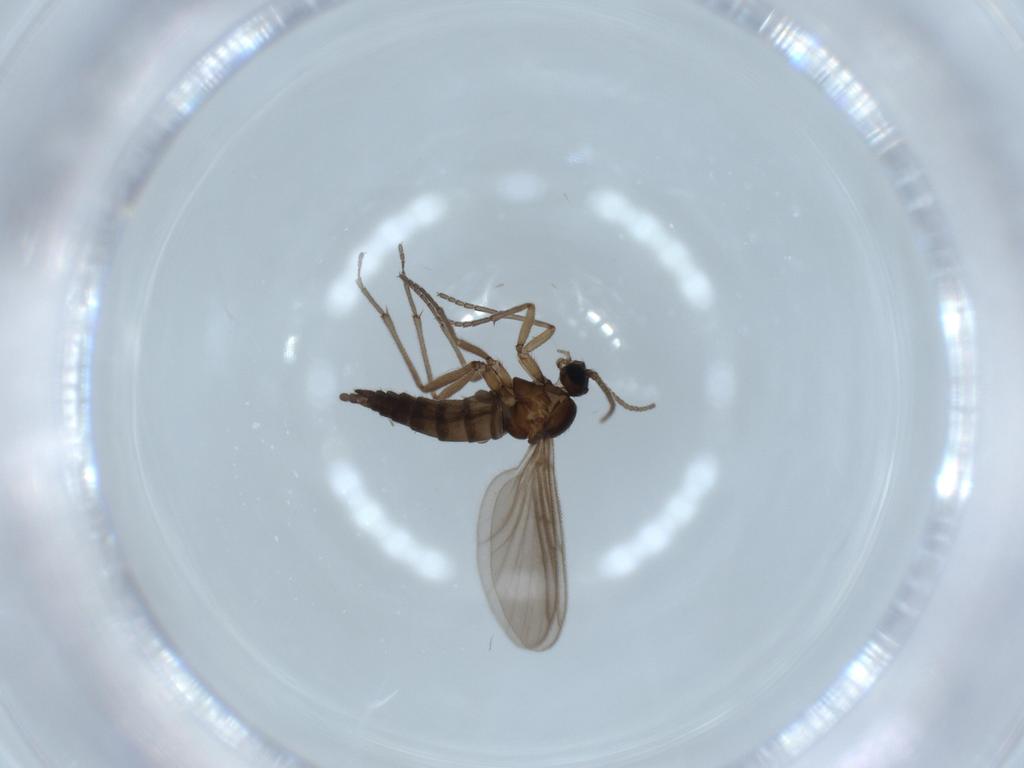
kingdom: Animalia
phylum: Arthropoda
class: Insecta
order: Diptera
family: Sciaridae
